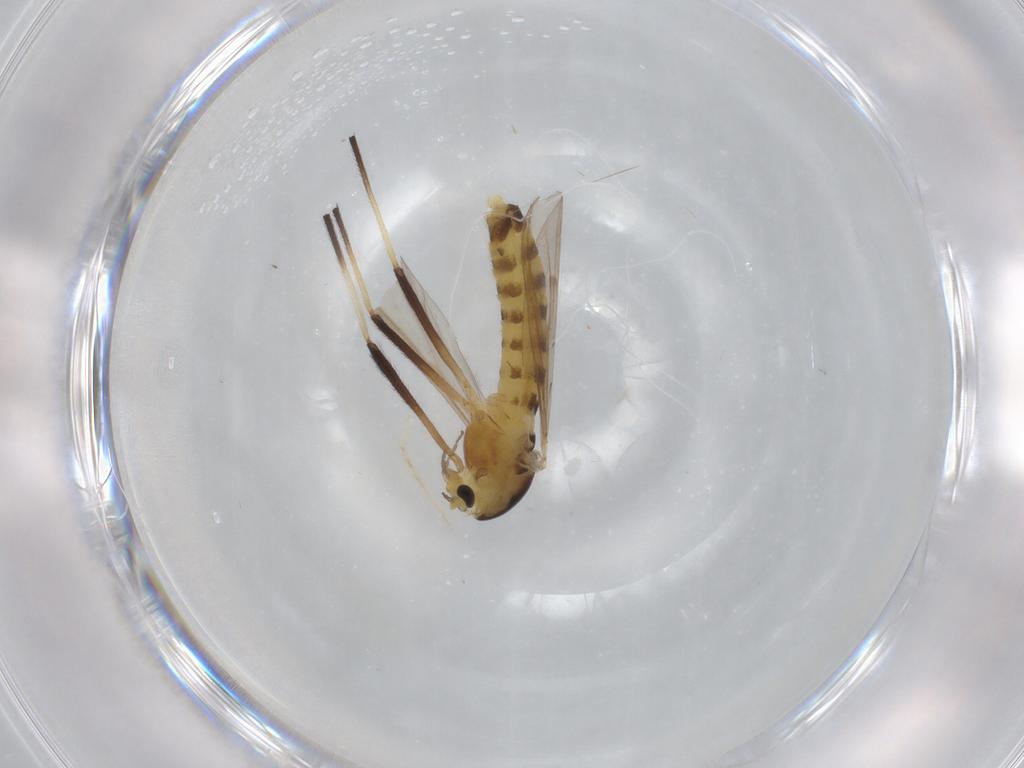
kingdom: Animalia
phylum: Arthropoda
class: Insecta
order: Diptera
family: Chironomidae
